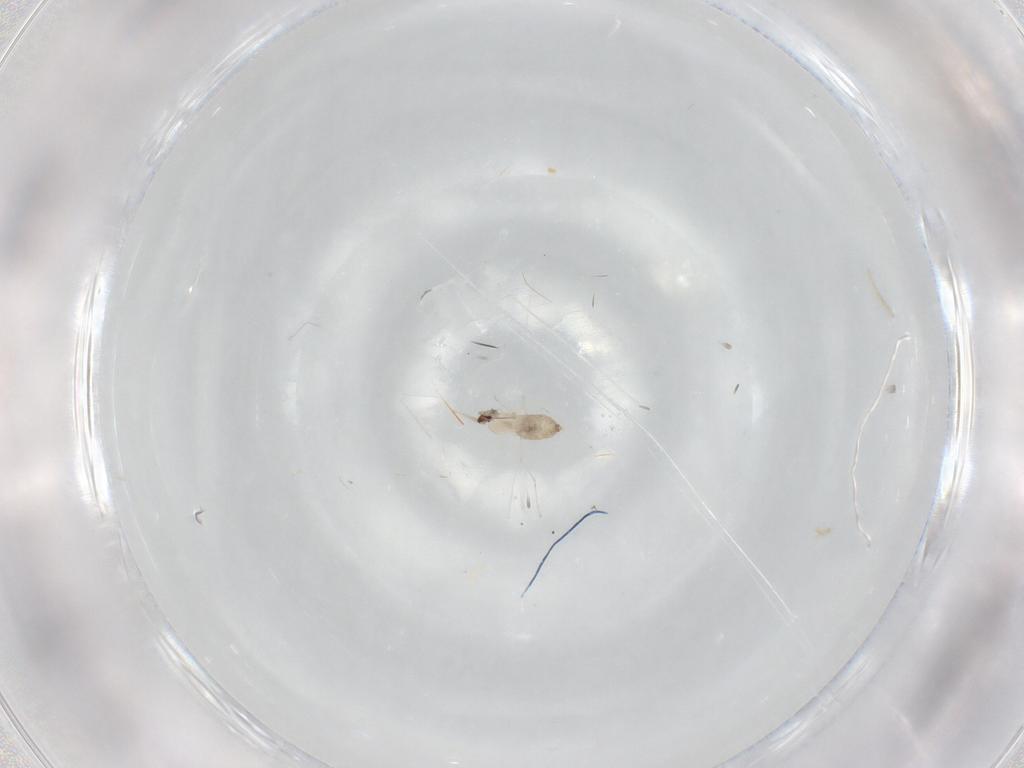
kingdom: Animalia
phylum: Arthropoda
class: Insecta
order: Diptera
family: Cecidomyiidae
